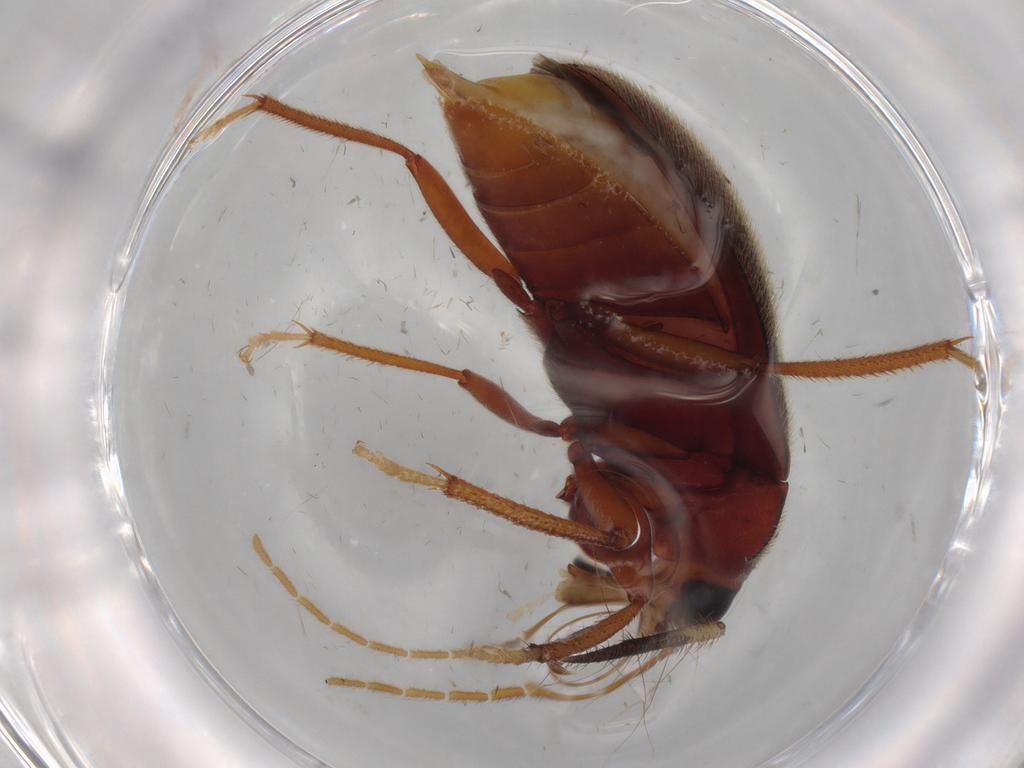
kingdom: Animalia
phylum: Arthropoda
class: Insecta
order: Coleoptera
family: Ptilodactylidae
